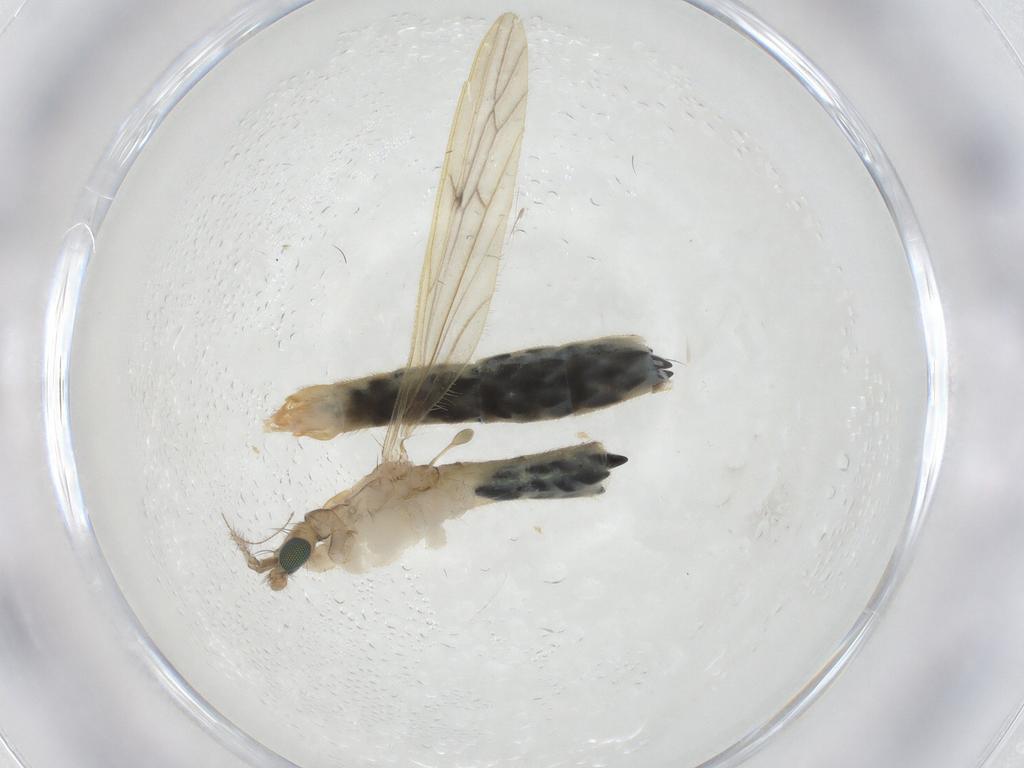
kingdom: Animalia
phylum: Arthropoda
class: Insecta
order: Diptera
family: Limoniidae
